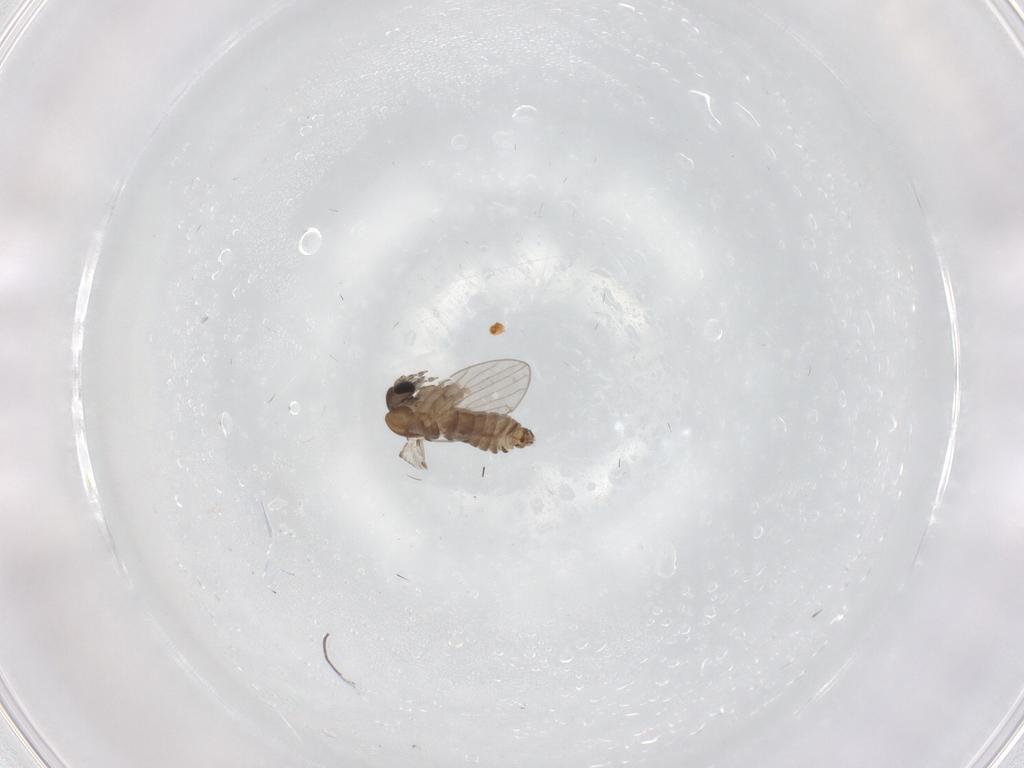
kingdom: Animalia
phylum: Arthropoda
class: Insecta
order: Diptera
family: Psychodidae
